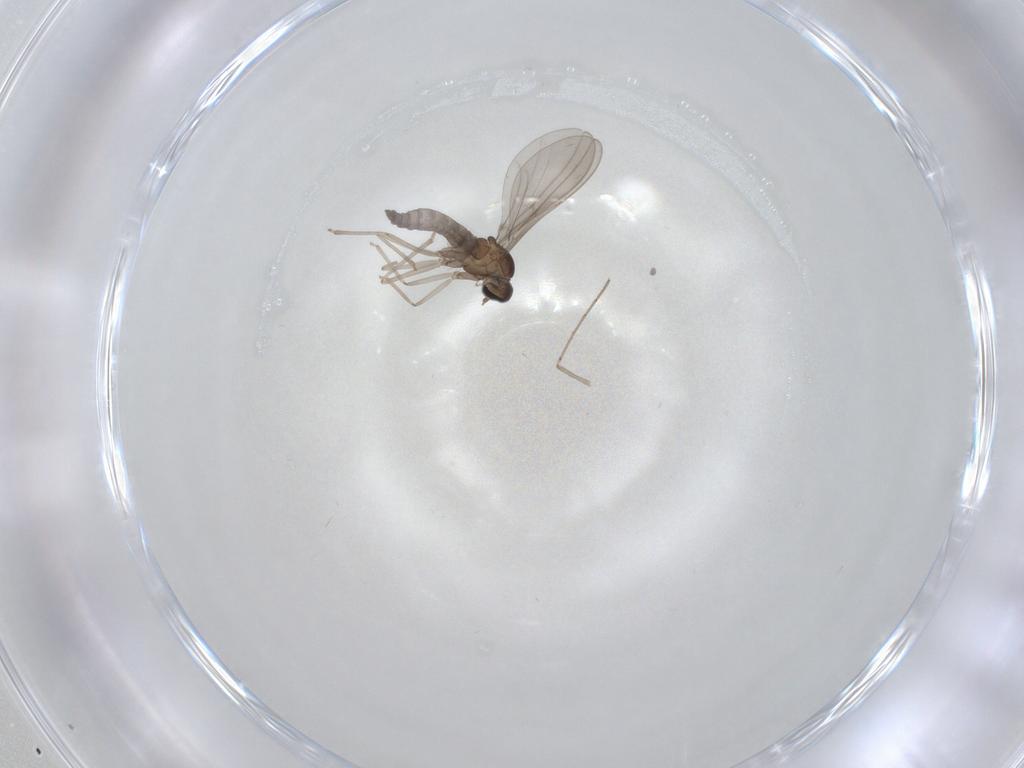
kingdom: Animalia
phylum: Arthropoda
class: Insecta
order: Diptera
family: Cecidomyiidae
